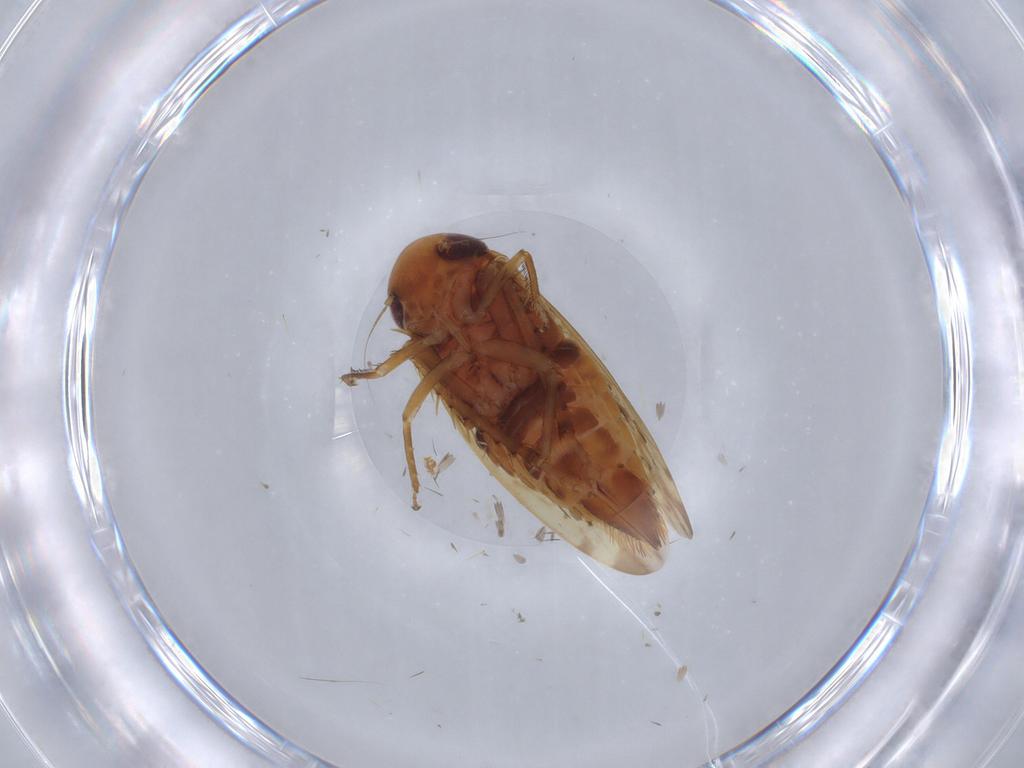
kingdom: Animalia
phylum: Arthropoda
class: Insecta
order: Hemiptera
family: Cicadellidae
